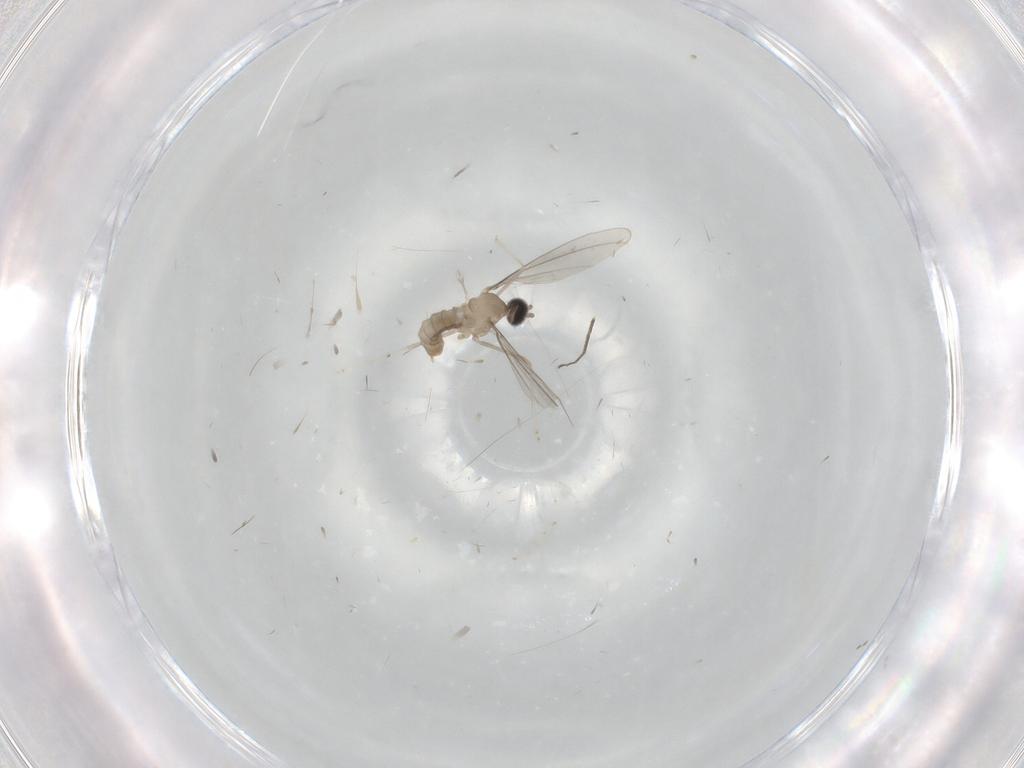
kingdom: Animalia
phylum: Arthropoda
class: Insecta
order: Diptera
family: Cecidomyiidae
